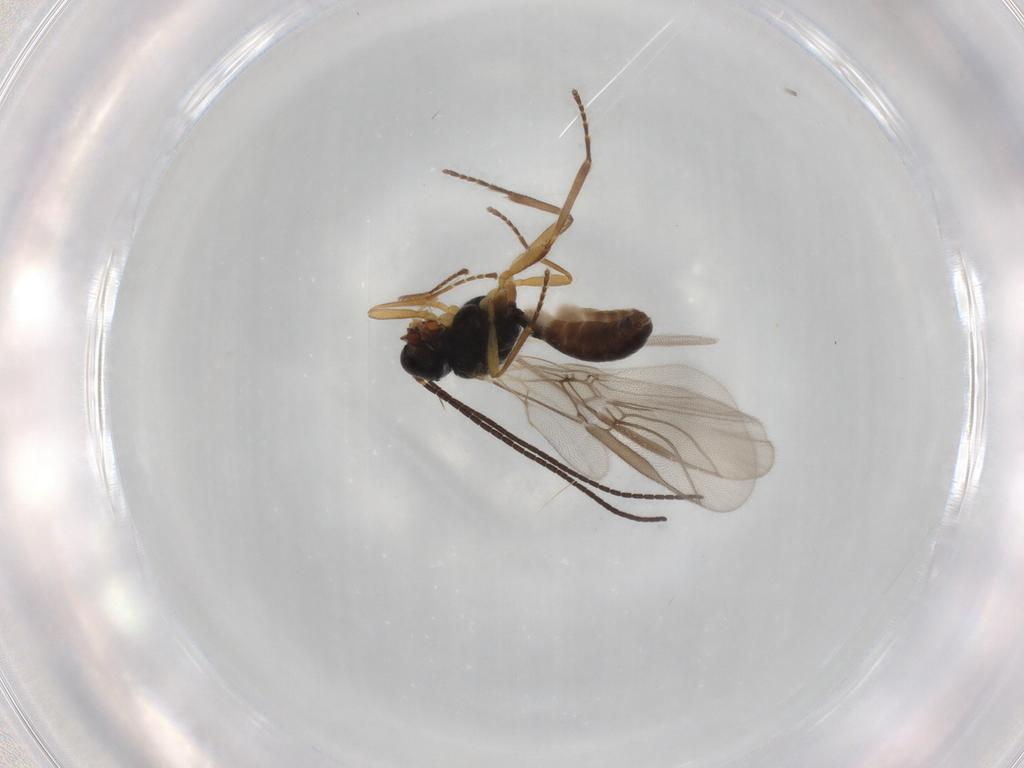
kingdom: Animalia
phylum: Arthropoda
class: Insecta
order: Hymenoptera
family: Braconidae
